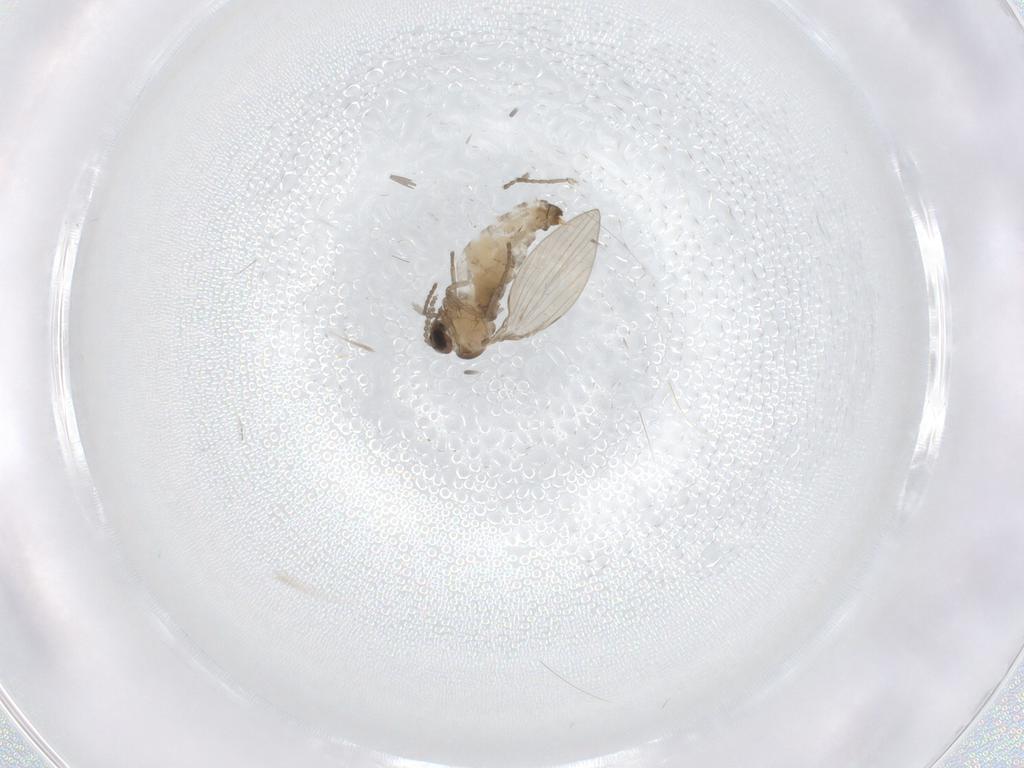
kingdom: Animalia
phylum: Arthropoda
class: Insecta
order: Diptera
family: Psychodidae
